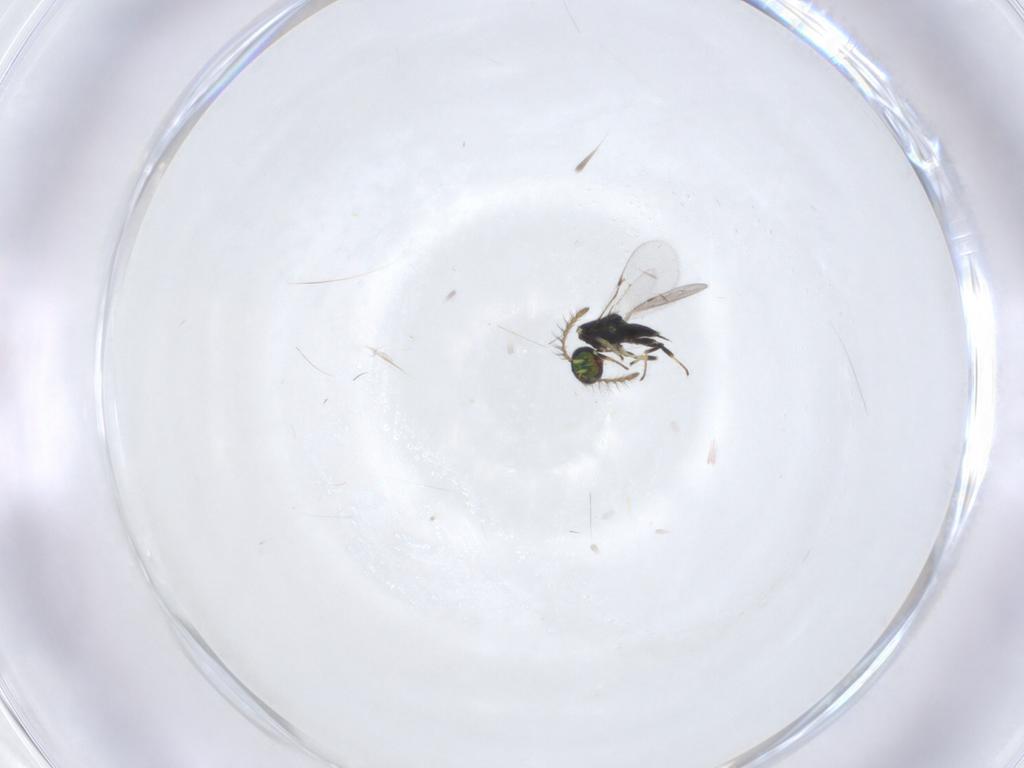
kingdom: Animalia
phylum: Arthropoda
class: Insecta
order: Hymenoptera
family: Encyrtidae
